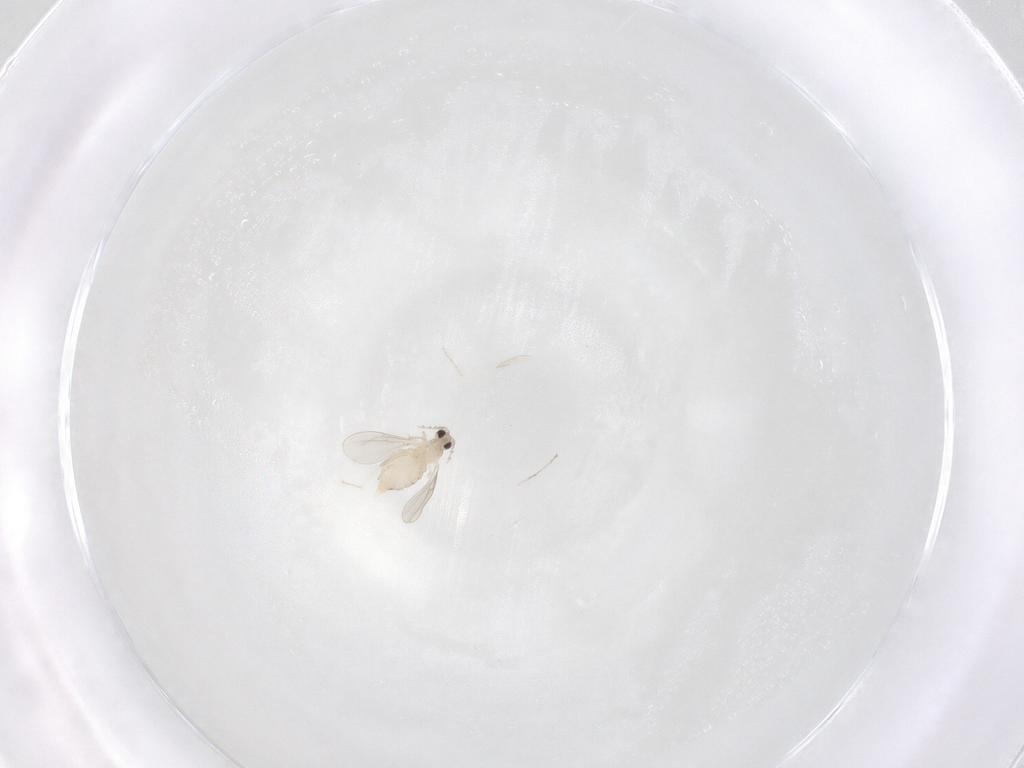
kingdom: Animalia
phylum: Arthropoda
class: Insecta
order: Diptera
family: Cecidomyiidae
